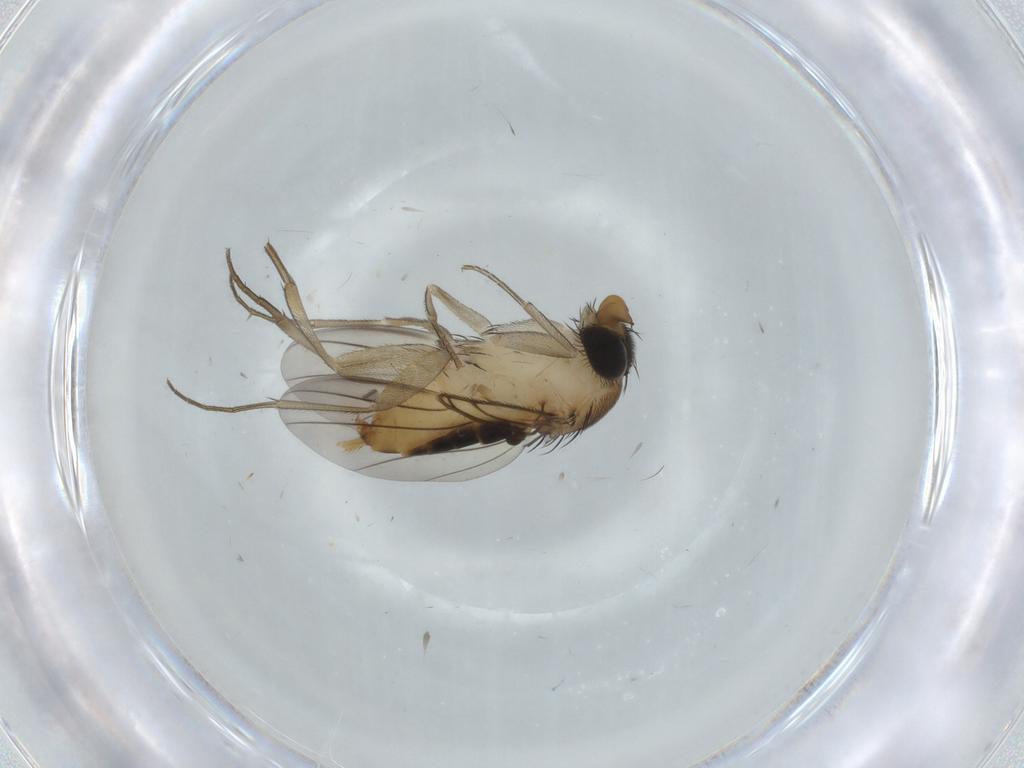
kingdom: Animalia
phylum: Arthropoda
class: Insecta
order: Diptera
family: Phoridae
